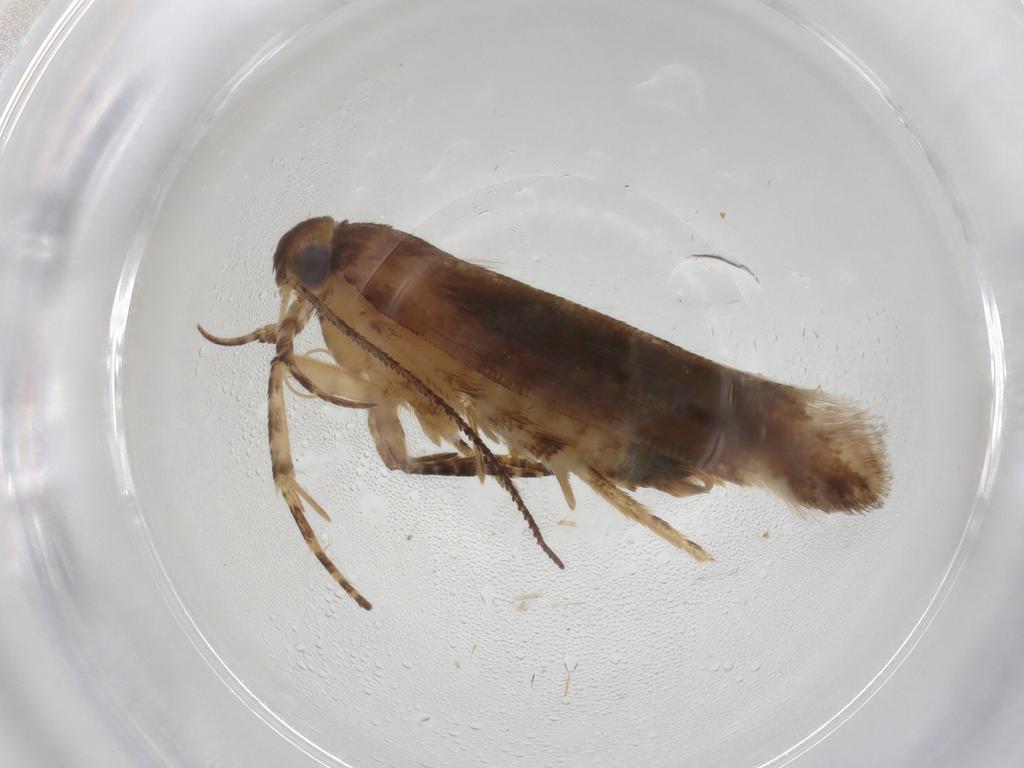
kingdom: Animalia
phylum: Arthropoda
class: Insecta
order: Lepidoptera
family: Gelechiidae
